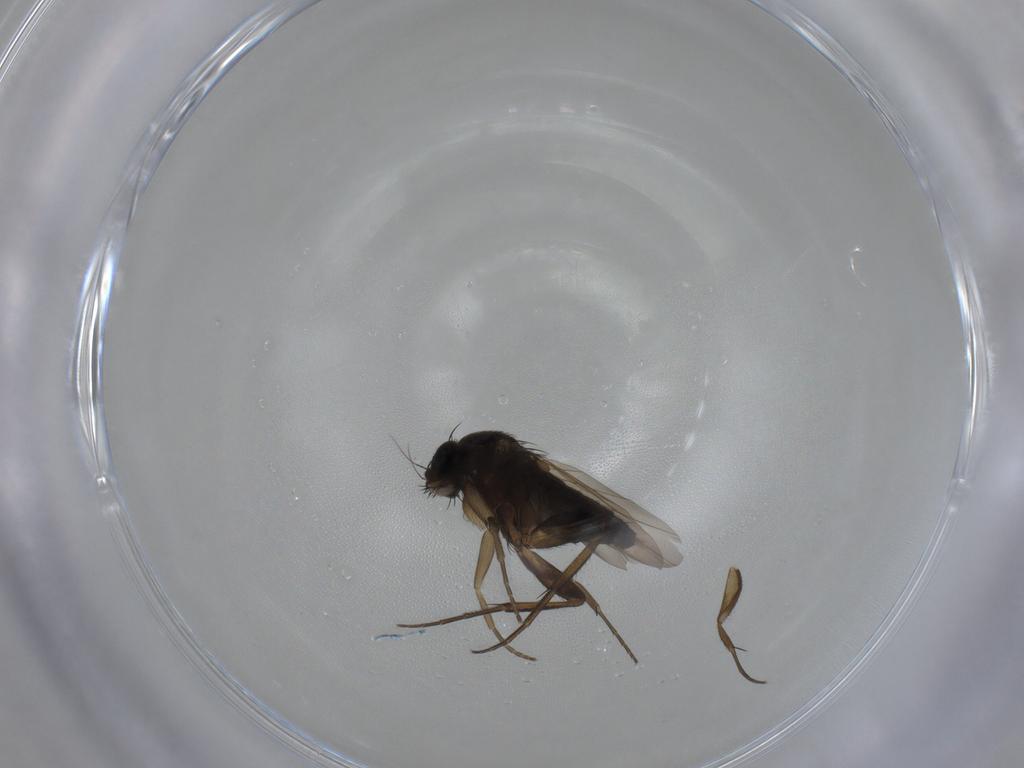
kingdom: Animalia
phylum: Arthropoda
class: Insecta
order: Diptera
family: Phoridae
